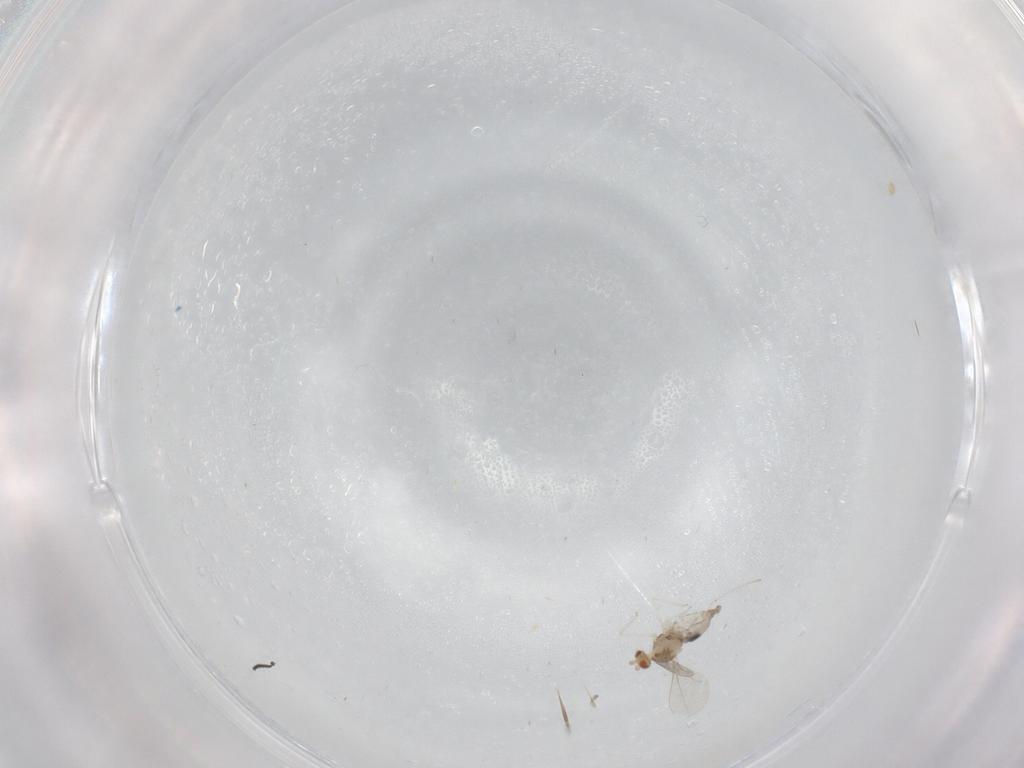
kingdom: Animalia
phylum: Arthropoda
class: Insecta
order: Diptera
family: Cecidomyiidae
